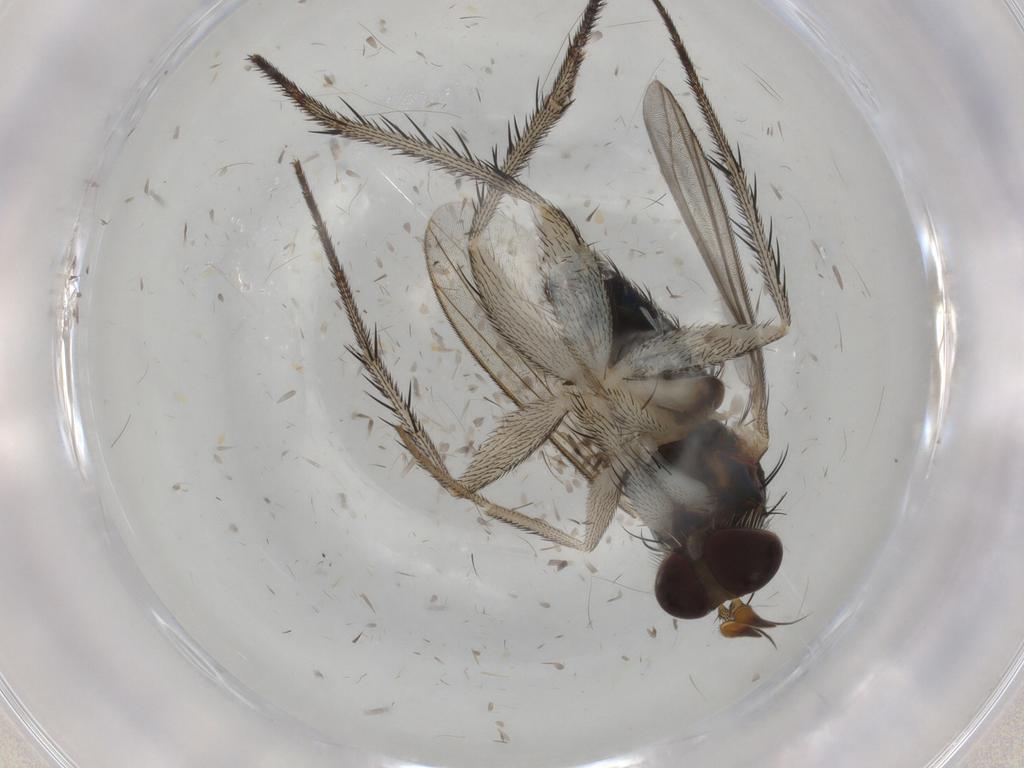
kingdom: Animalia
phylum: Arthropoda
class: Insecta
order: Diptera
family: Dolichopodidae
